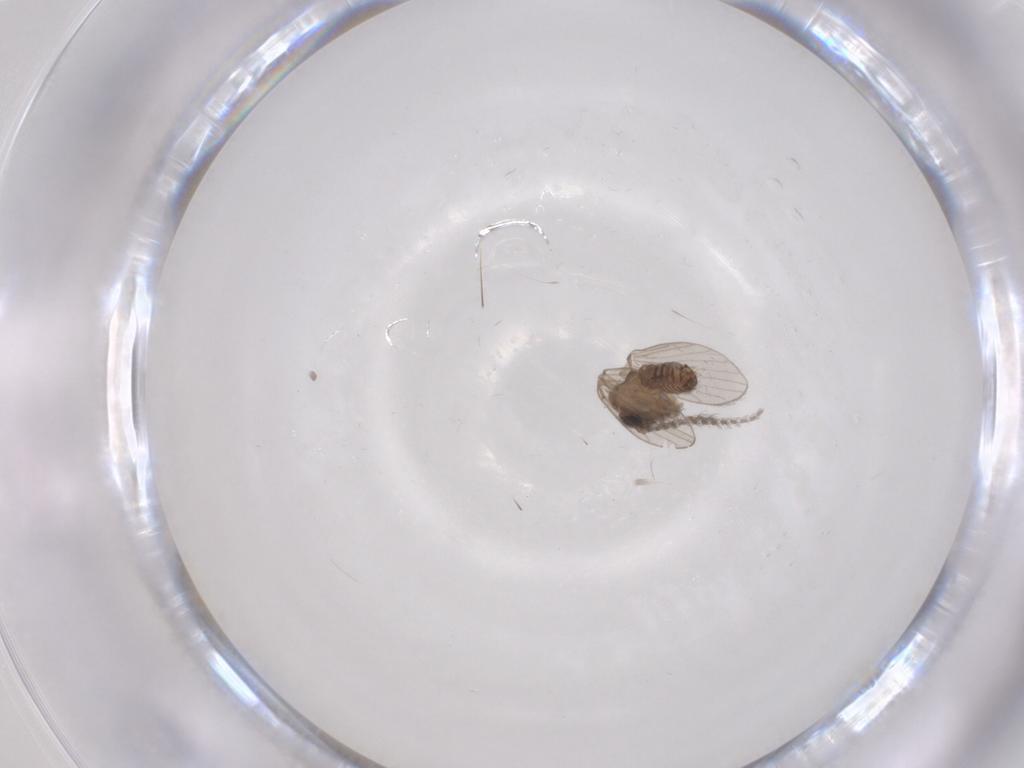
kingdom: Animalia
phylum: Arthropoda
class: Insecta
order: Diptera
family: Psychodidae
